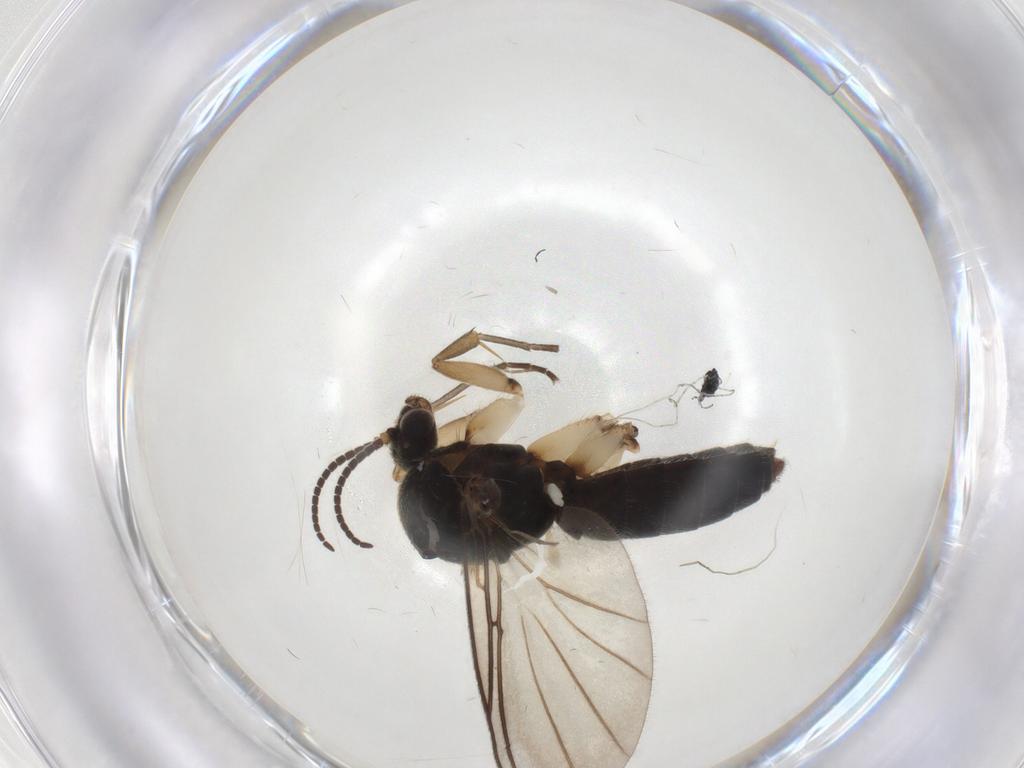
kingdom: Animalia
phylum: Arthropoda
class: Insecta
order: Diptera
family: Mycetophilidae
